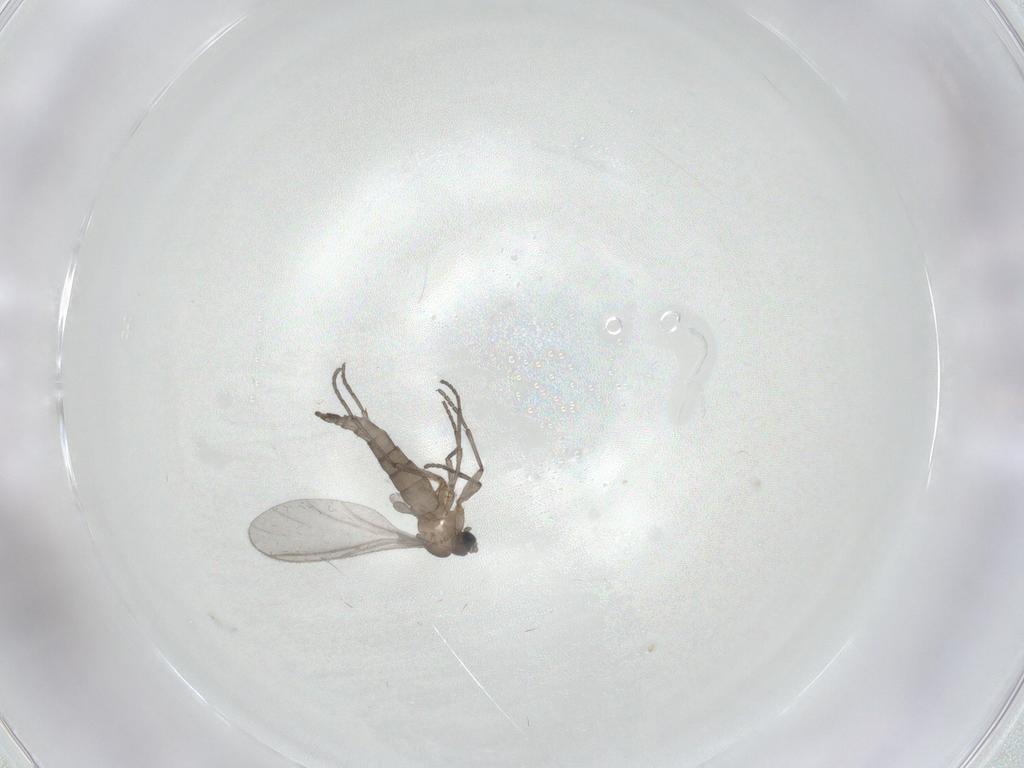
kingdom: Animalia
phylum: Arthropoda
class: Insecta
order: Diptera
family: Sciaridae
